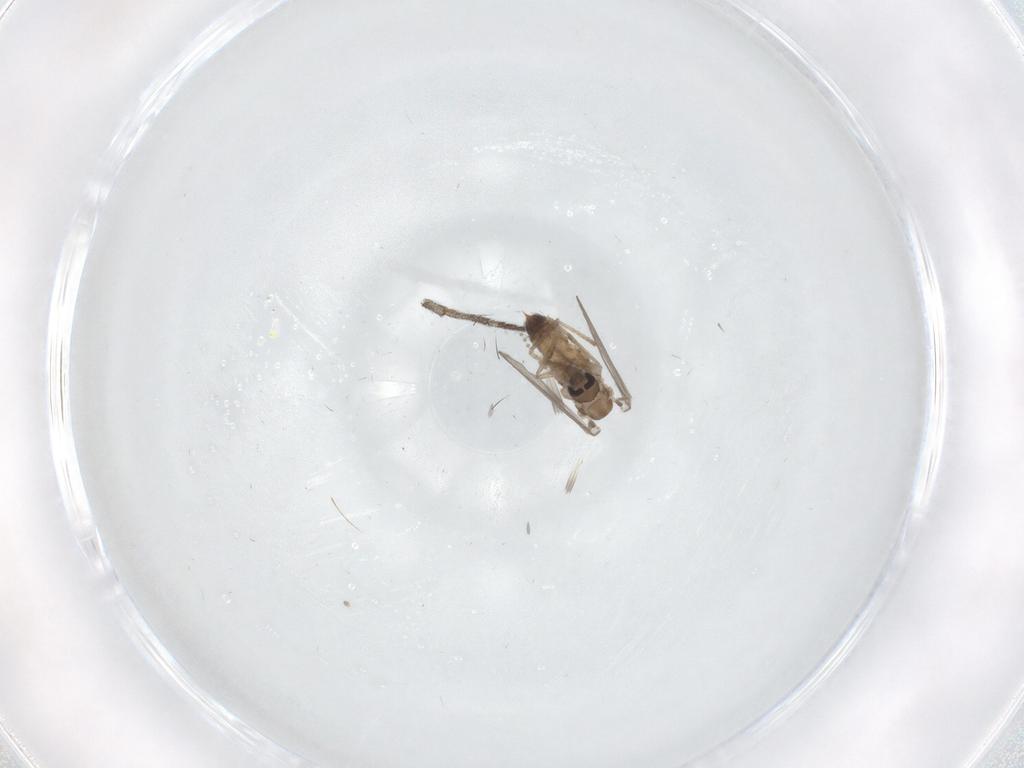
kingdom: Animalia
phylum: Arthropoda
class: Insecta
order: Diptera
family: Psychodidae
